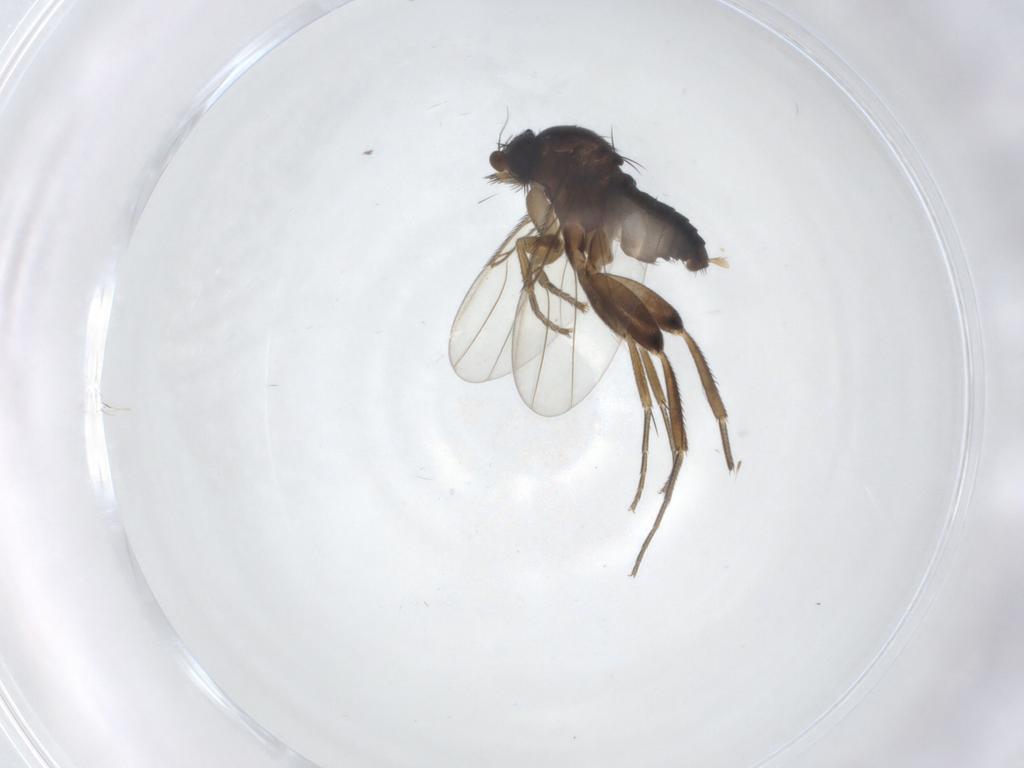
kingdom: Animalia
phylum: Arthropoda
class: Insecta
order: Diptera
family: Phoridae
